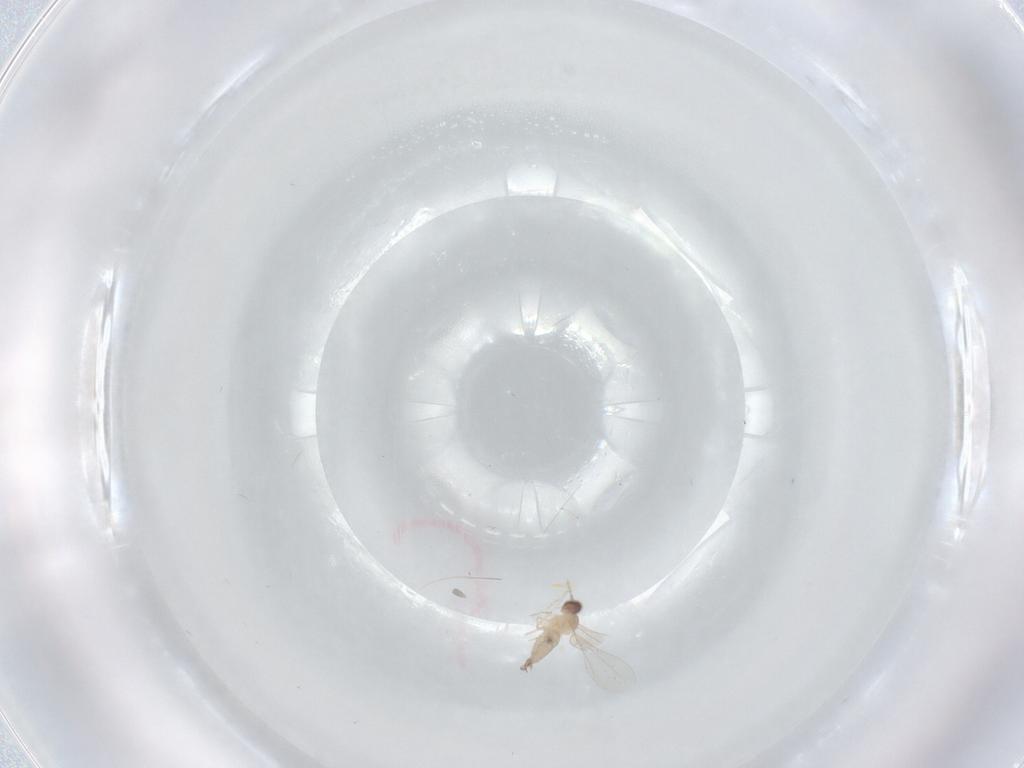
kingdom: Animalia
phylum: Arthropoda
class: Insecta
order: Diptera
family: Cecidomyiidae
